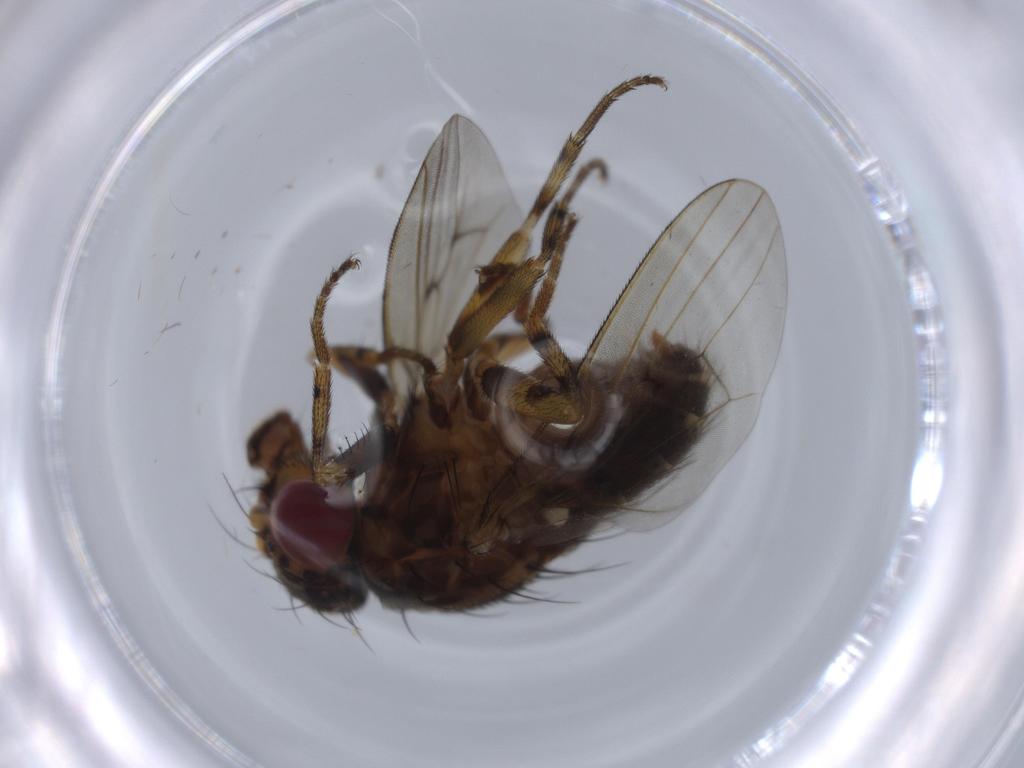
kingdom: Animalia
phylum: Arthropoda
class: Insecta
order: Diptera
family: Sciaridae
